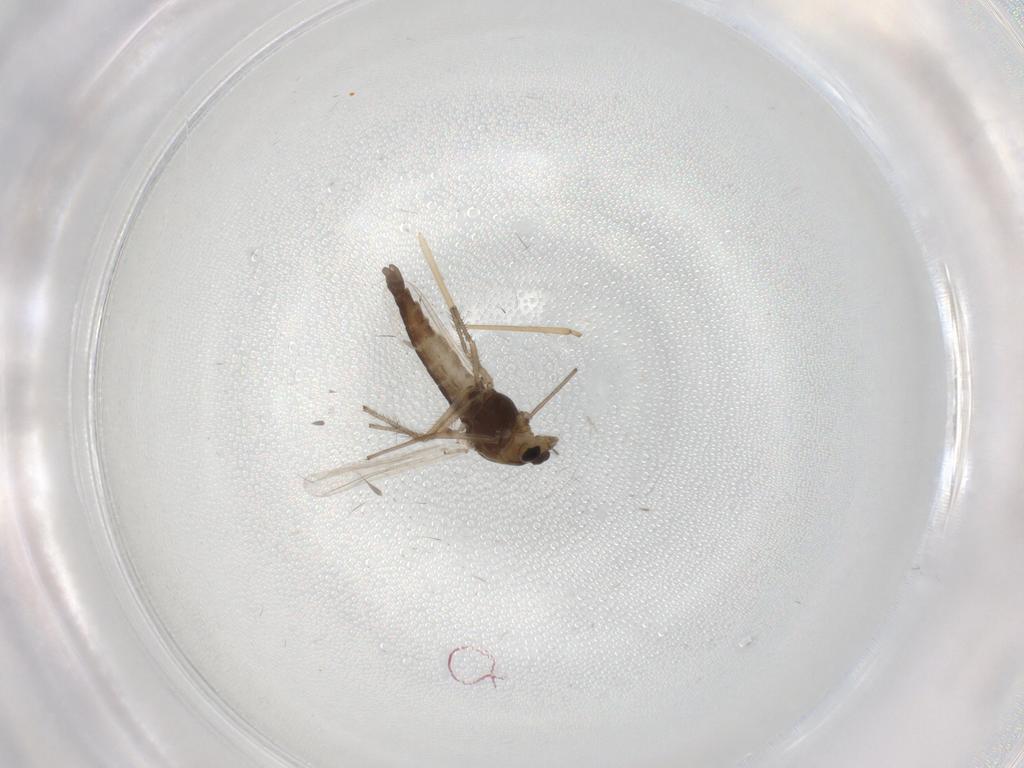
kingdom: Animalia
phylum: Arthropoda
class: Insecta
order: Diptera
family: Chironomidae
